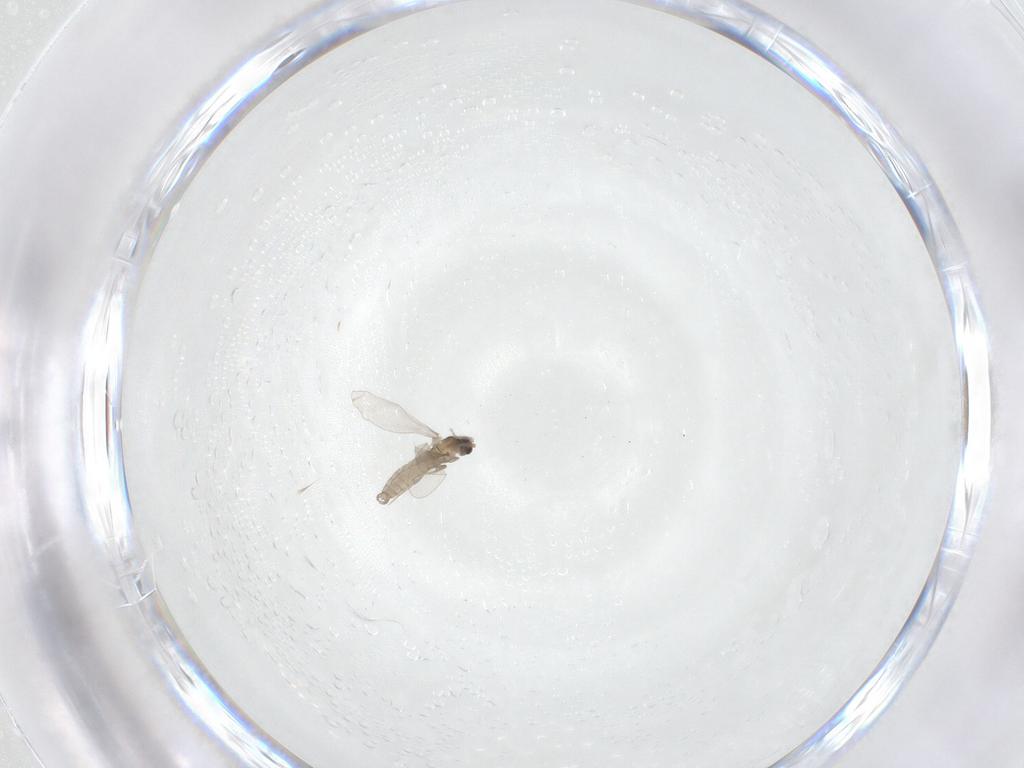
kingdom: Animalia
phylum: Arthropoda
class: Insecta
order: Diptera
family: Cecidomyiidae
